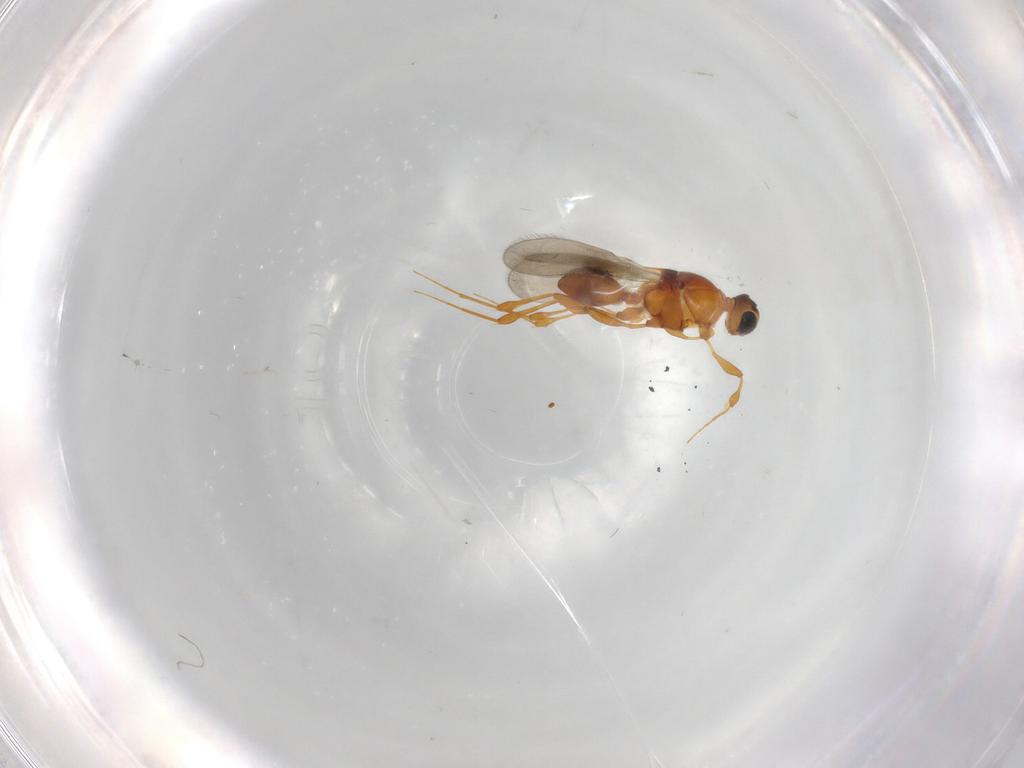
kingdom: Animalia
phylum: Arthropoda
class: Insecta
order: Hymenoptera
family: Platygastridae
